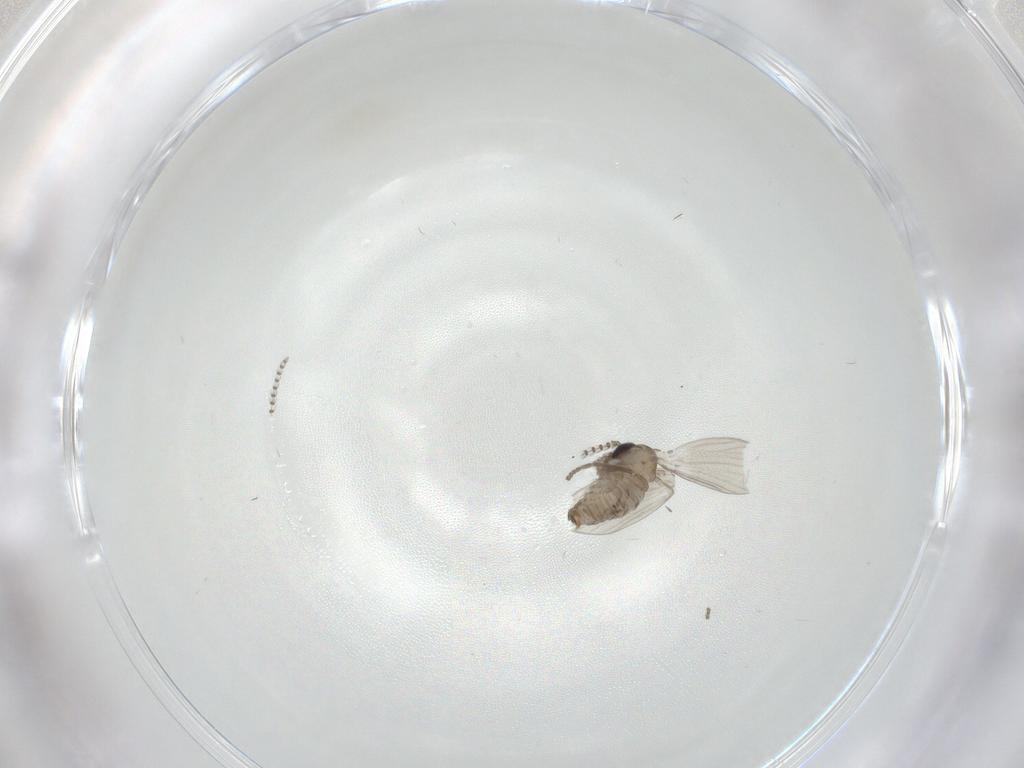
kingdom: Animalia
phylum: Arthropoda
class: Insecta
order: Diptera
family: Psychodidae
